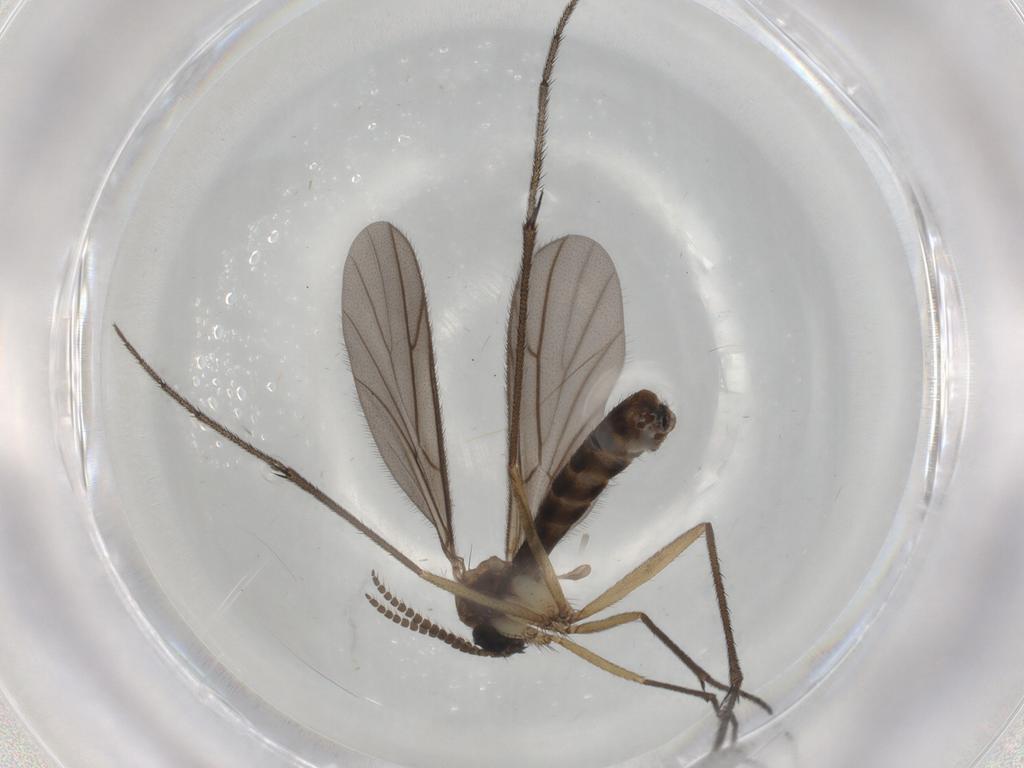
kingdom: Animalia
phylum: Arthropoda
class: Insecta
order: Diptera
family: Ditomyiidae
